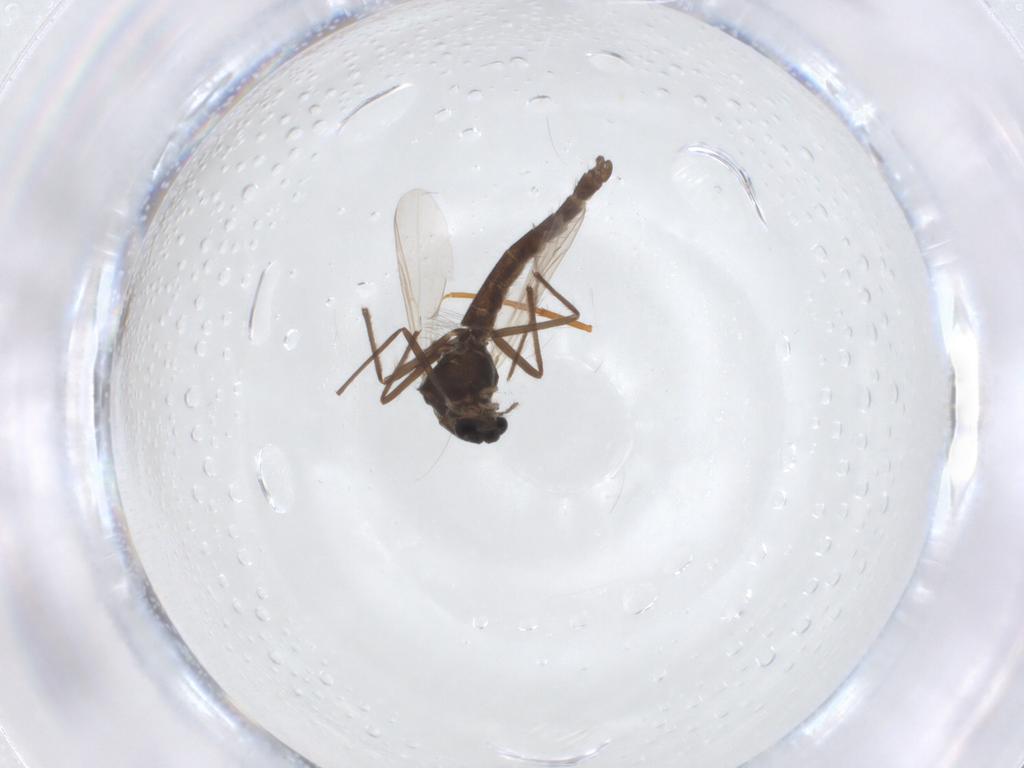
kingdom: Animalia
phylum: Arthropoda
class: Insecta
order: Diptera
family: Chironomidae
